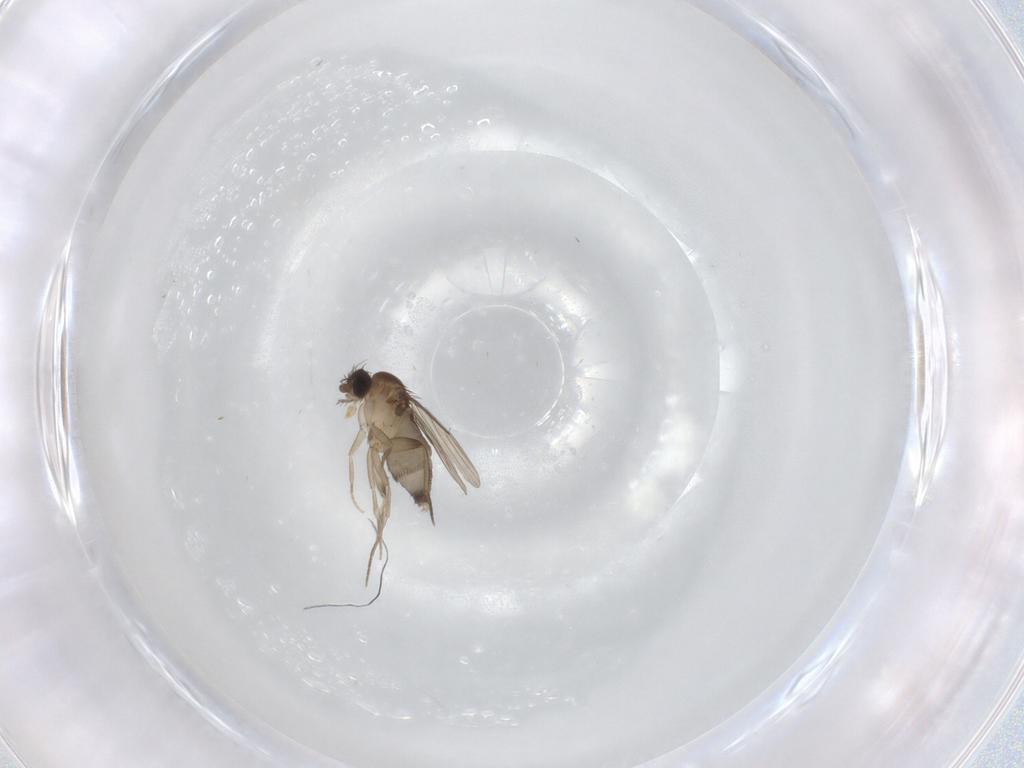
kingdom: Animalia
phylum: Arthropoda
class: Insecta
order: Diptera
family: Phoridae
